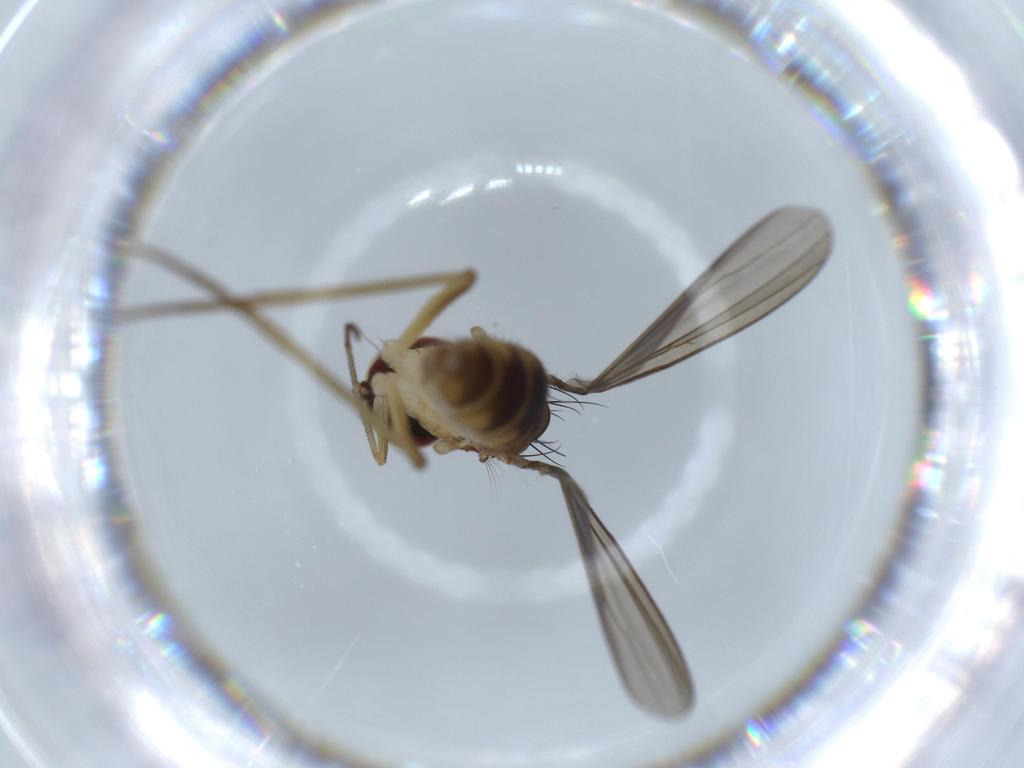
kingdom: Animalia
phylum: Arthropoda
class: Insecta
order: Diptera
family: Dolichopodidae
